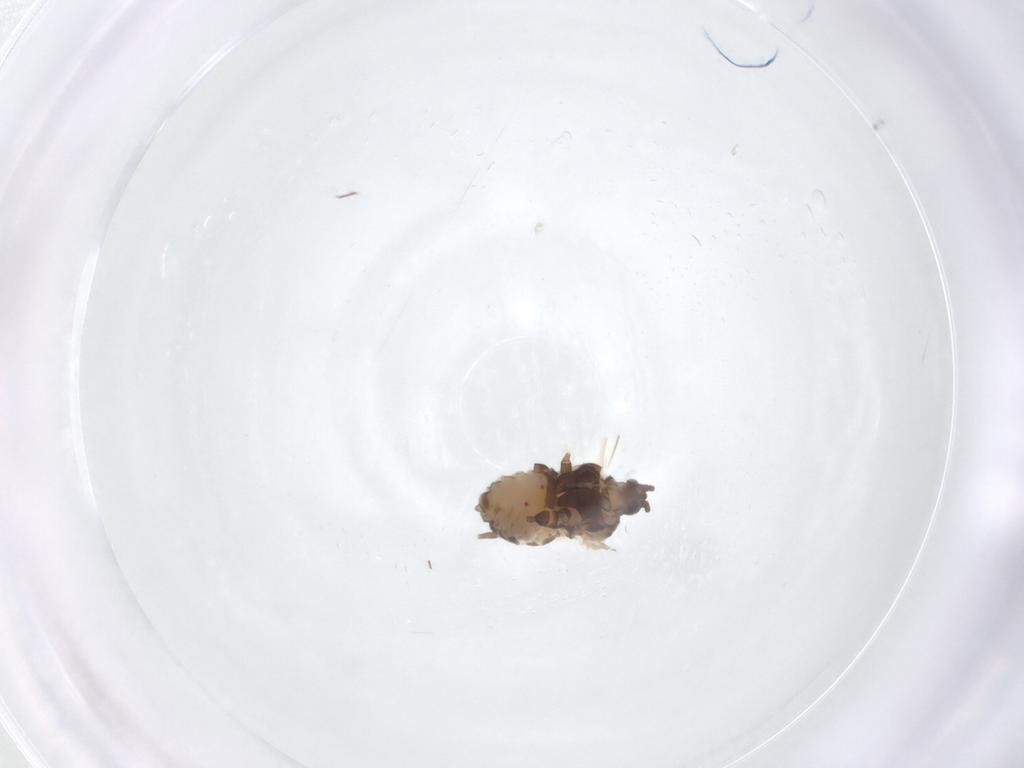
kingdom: Animalia
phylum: Arthropoda
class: Insecta
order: Hemiptera
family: Aphididae
